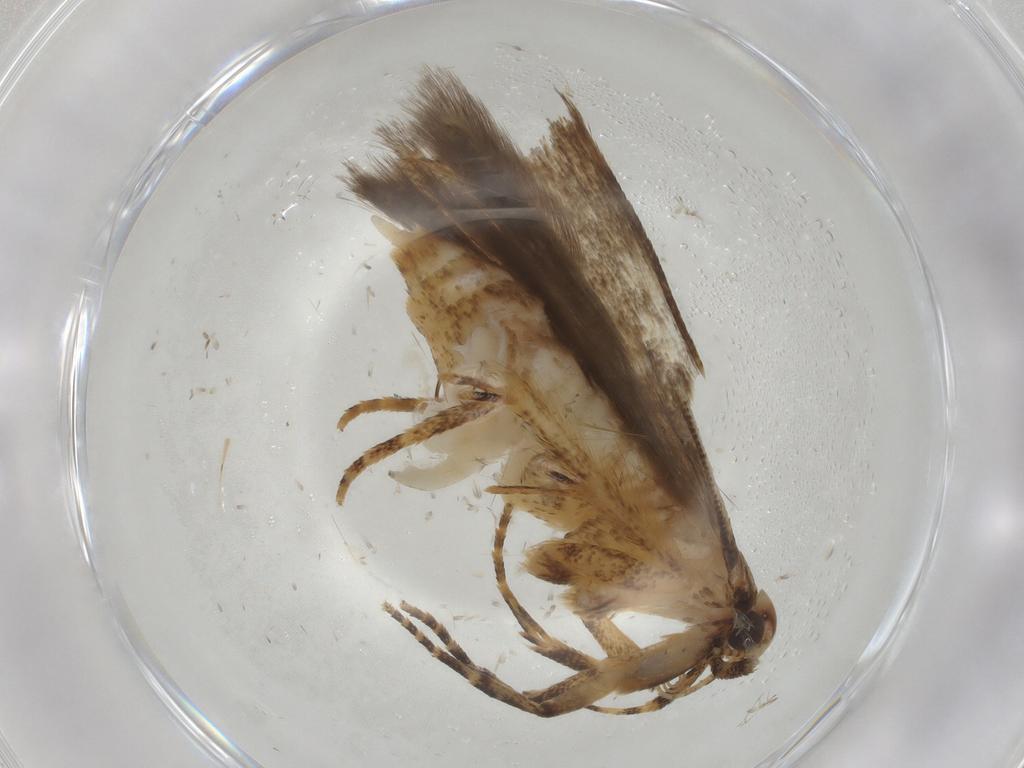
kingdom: Animalia
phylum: Arthropoda
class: Insecta
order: Lepidoptera
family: Plutellidae
